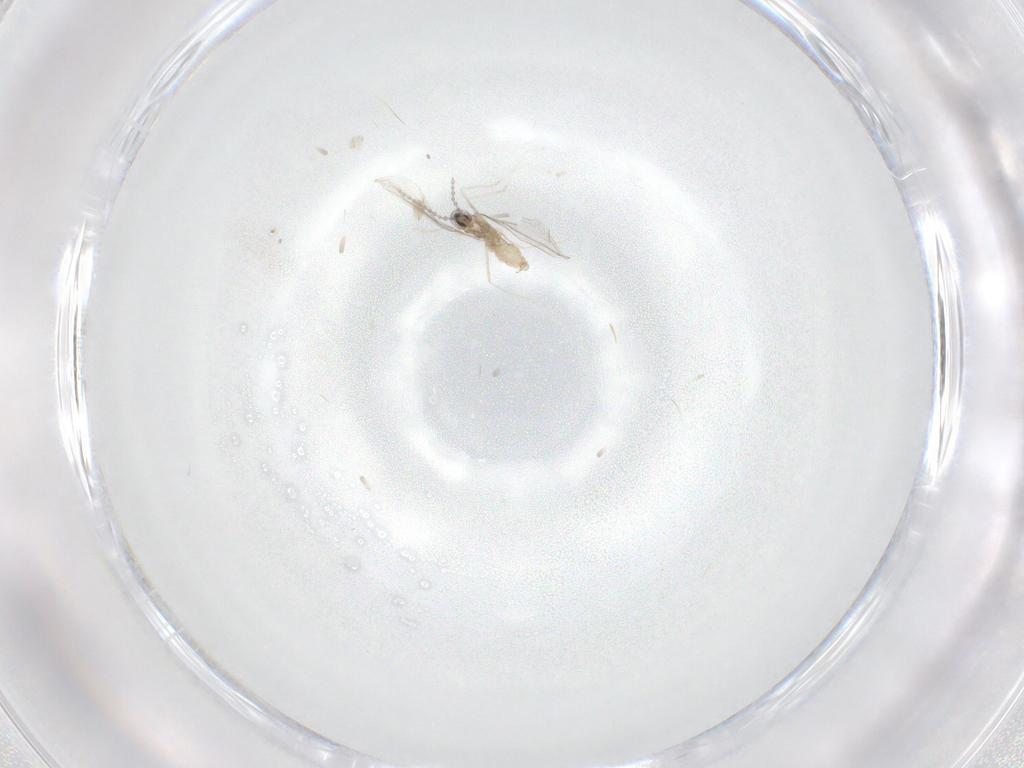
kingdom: Animalia
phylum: Arthropoda
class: Insecta
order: Diptera
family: Cecidomyiidae
